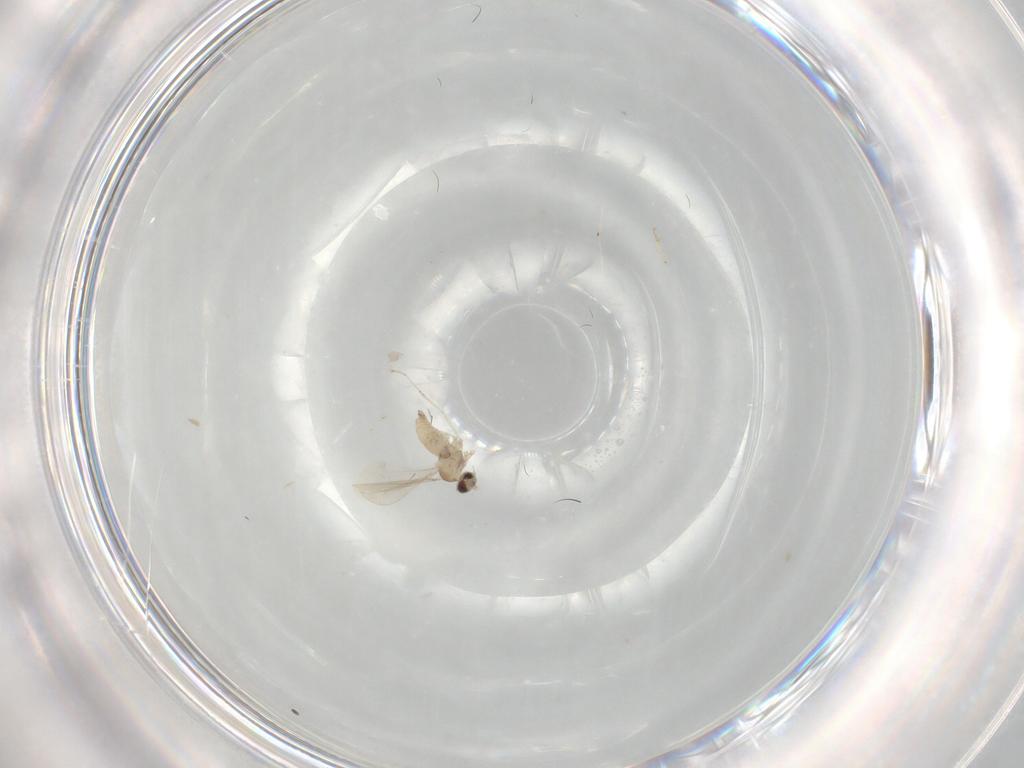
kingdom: Animalia
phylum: Arthropoda
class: Insecta
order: Diptera
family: Cecidomyiidae
